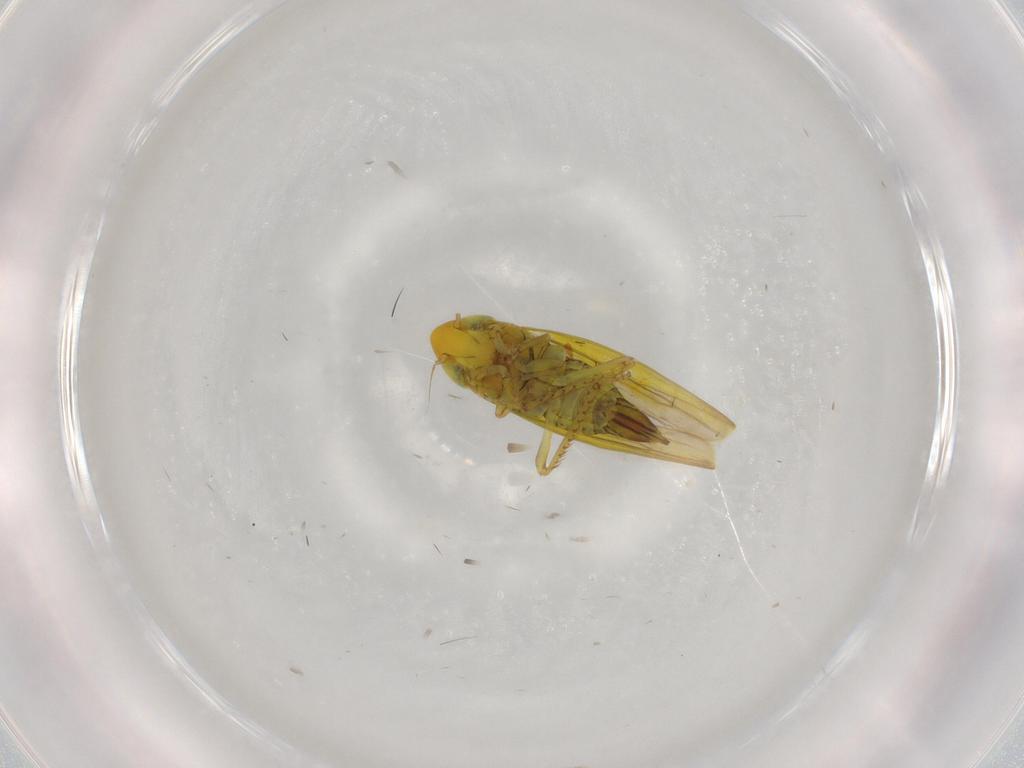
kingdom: Animalia
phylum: Arthropoda
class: Insecta
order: Hemiptera
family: Cicadellidae
